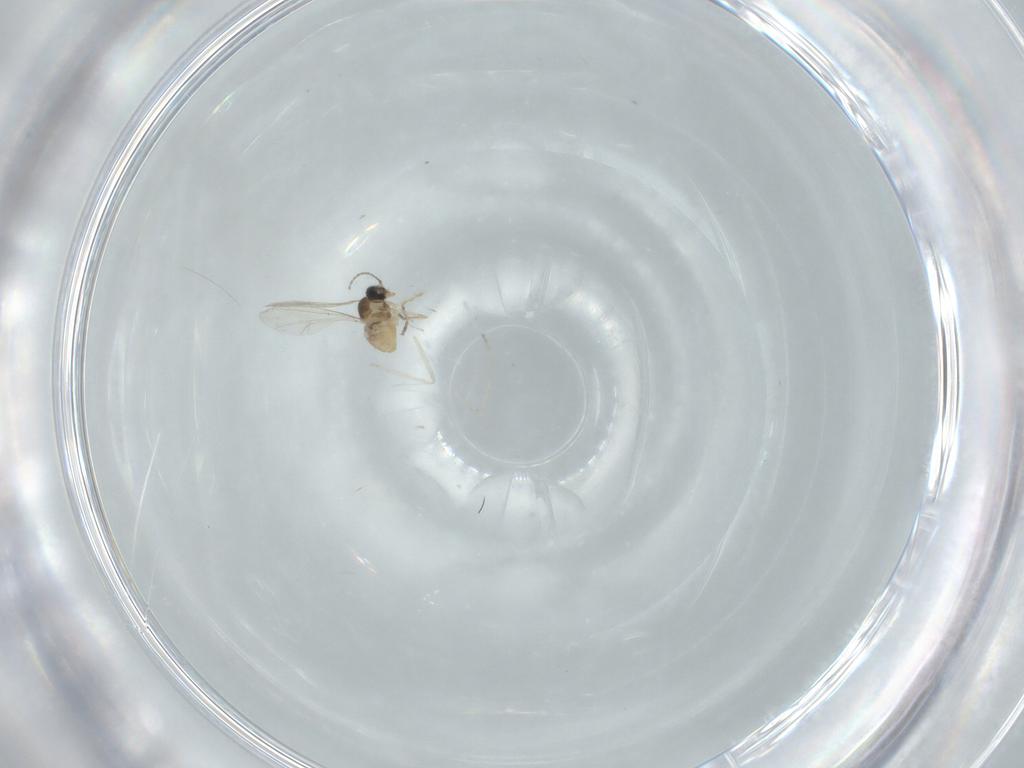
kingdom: Animalia
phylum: Arthropoda
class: Insecta
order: Diptera
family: Cecidomyiidae
